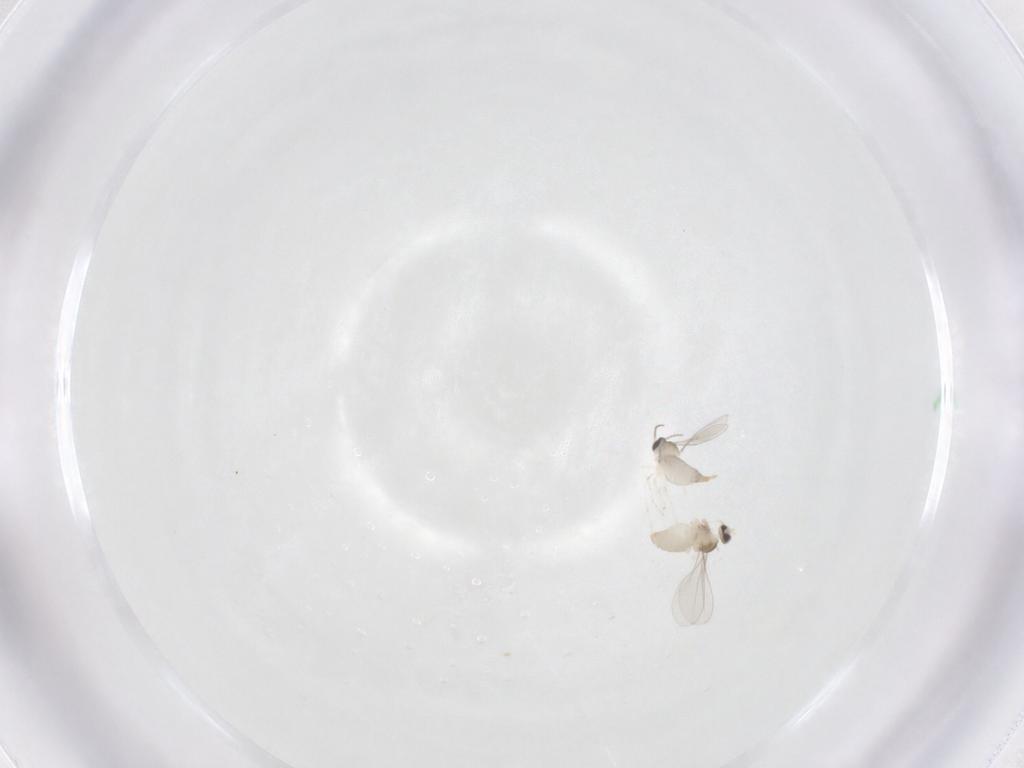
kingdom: Animalia
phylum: Arthropoda
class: Insecta
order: Diptera
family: Cecidomyiidae
